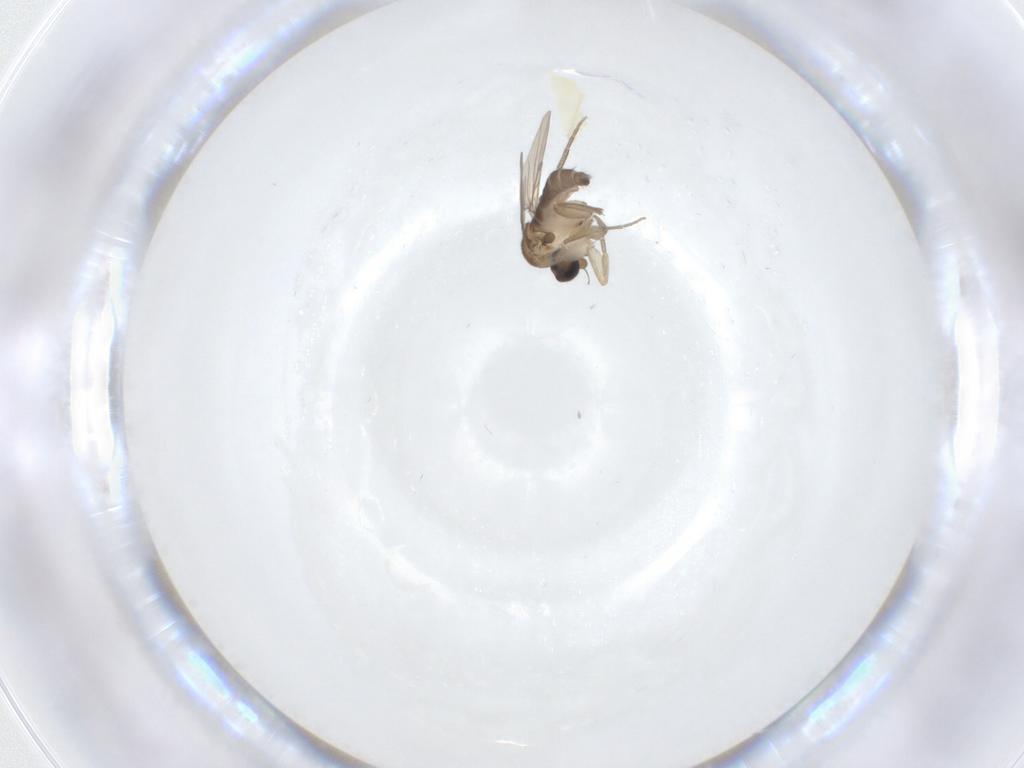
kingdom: Animalia
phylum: Arthropoda
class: Insecta
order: Diptera
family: Phoridae
